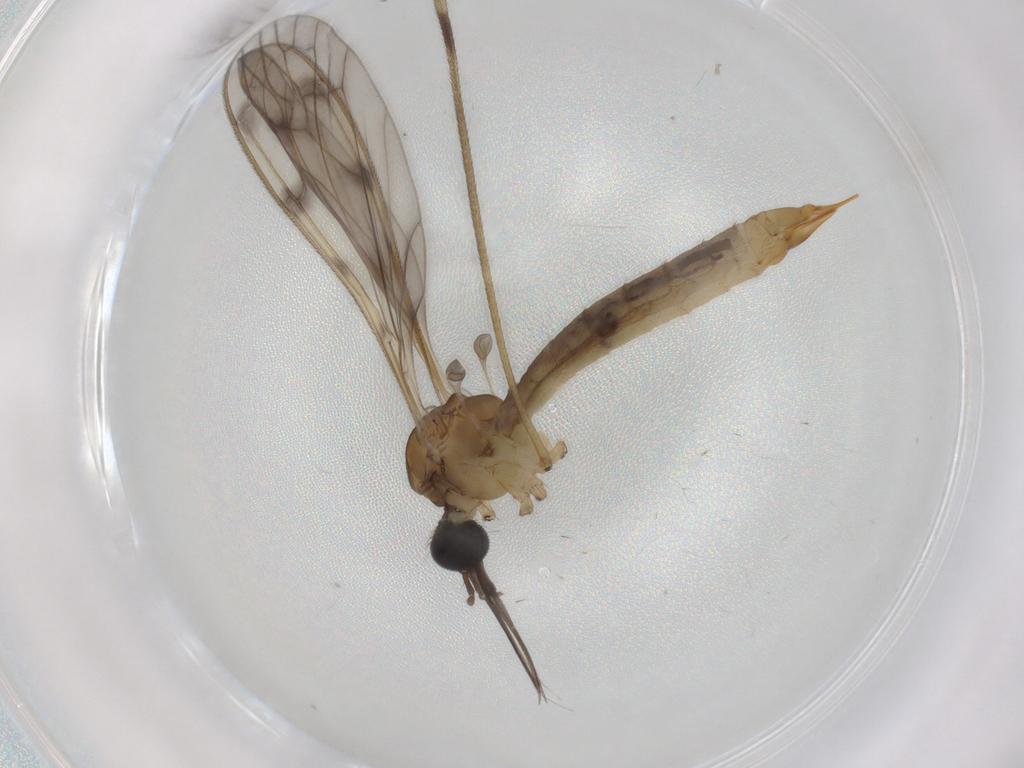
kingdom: Animalia
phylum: Arthropoda
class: Insecta
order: Diptera
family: Limoniidae
